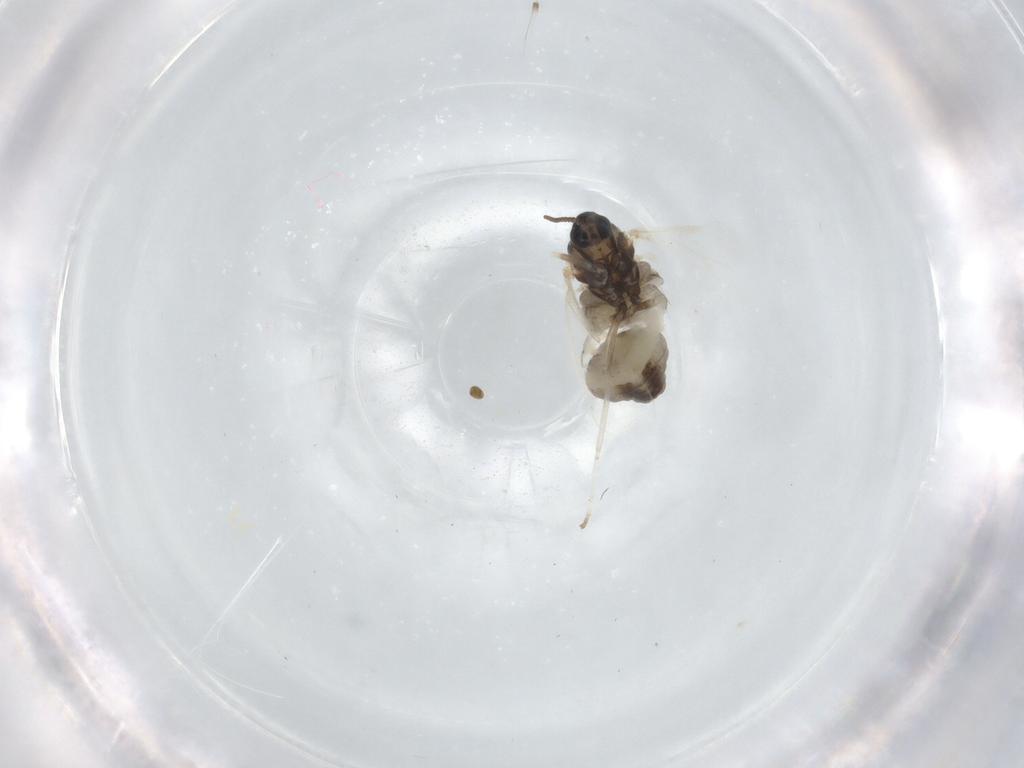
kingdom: Animalia
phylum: Arthropoda
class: Insecta
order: Diptera
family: Cecidomyiidae
